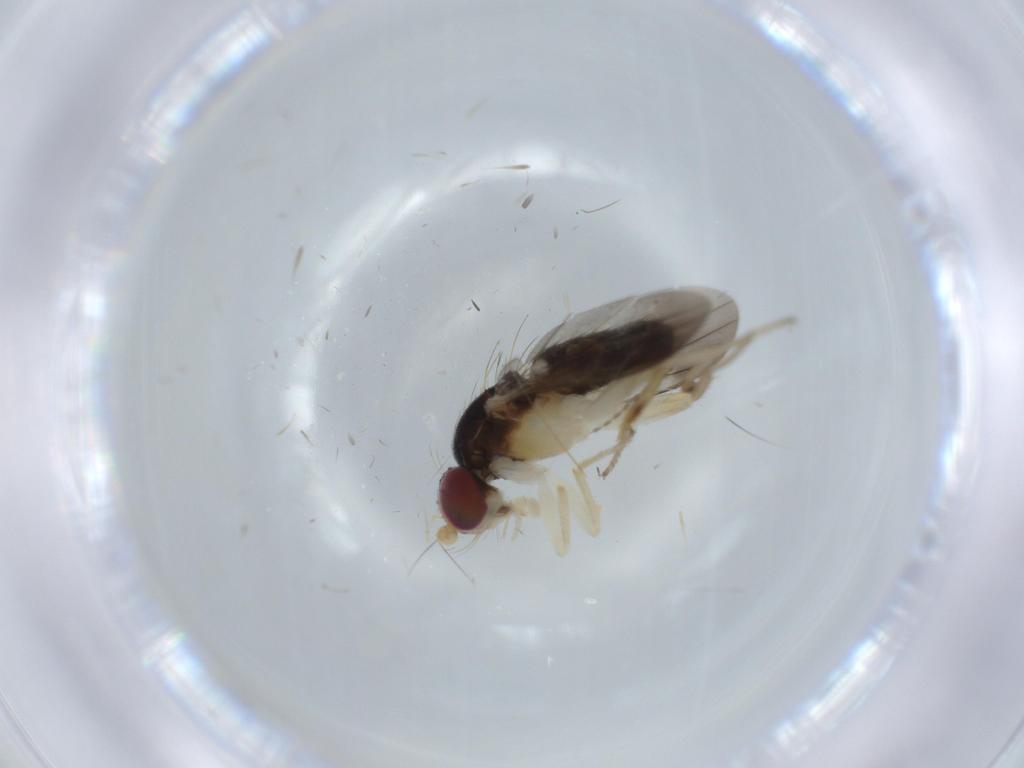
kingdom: Animalia
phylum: Arthropoda
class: Insecta
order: Diptera
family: Clusiidae
